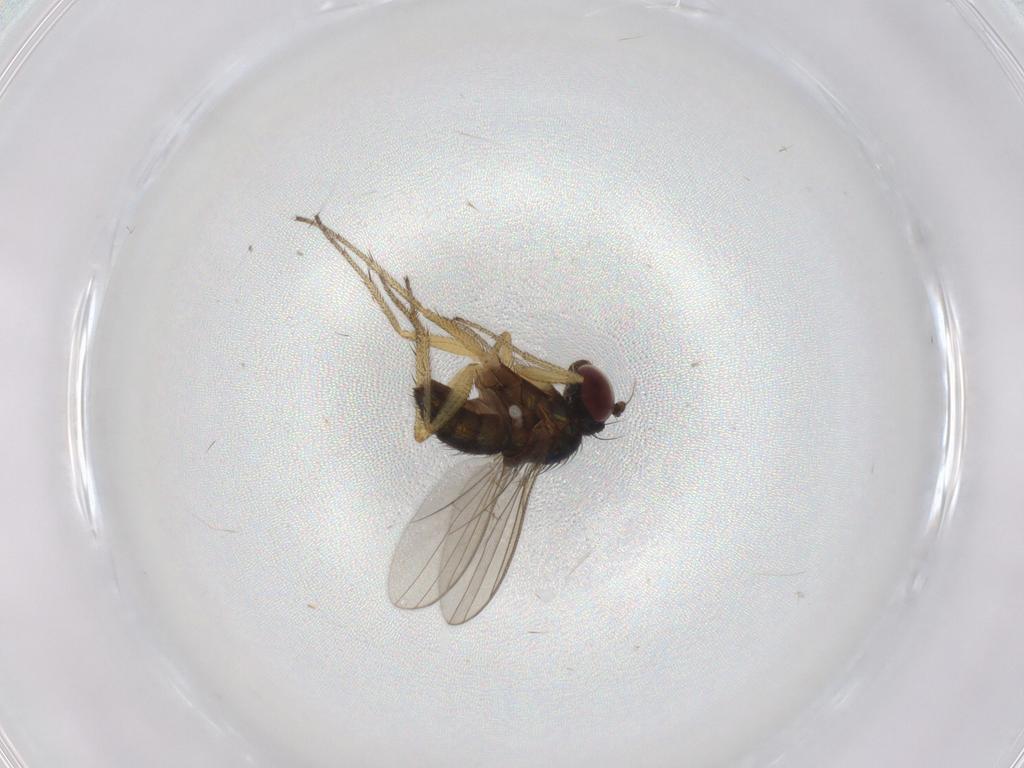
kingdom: Animalia
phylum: Arthropoda
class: Insecta
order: Diptera
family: Dolichopodidae
